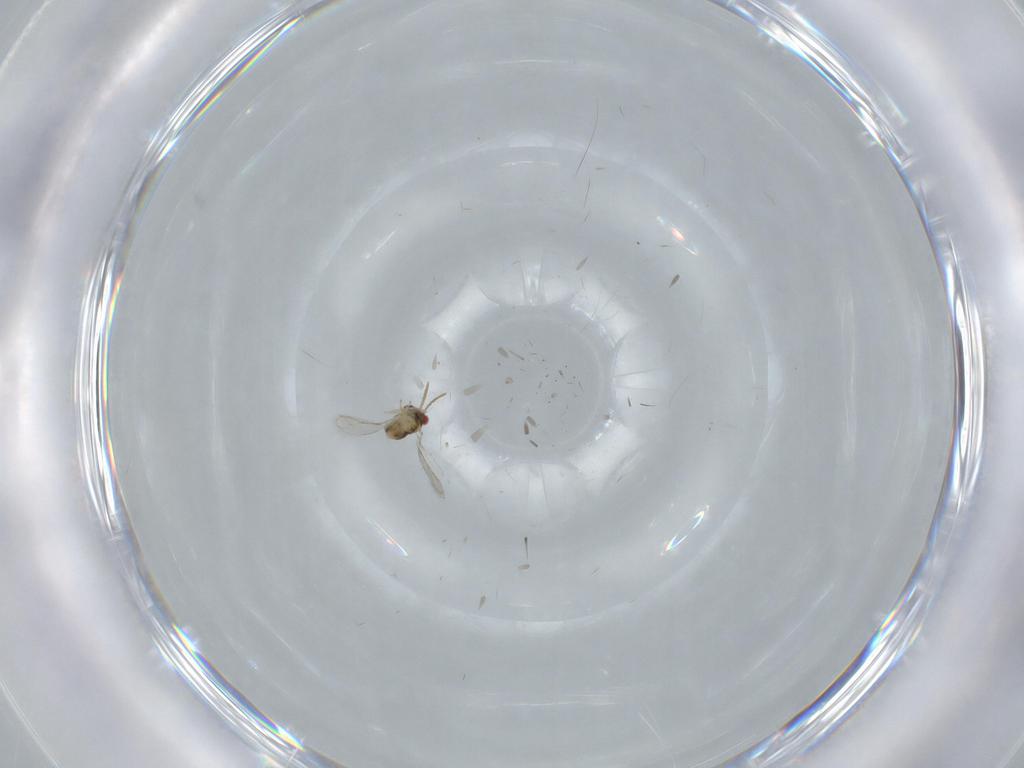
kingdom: Animalia
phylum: Arthropoda
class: Insecta
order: Hymenoptera
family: Aphelinidae
